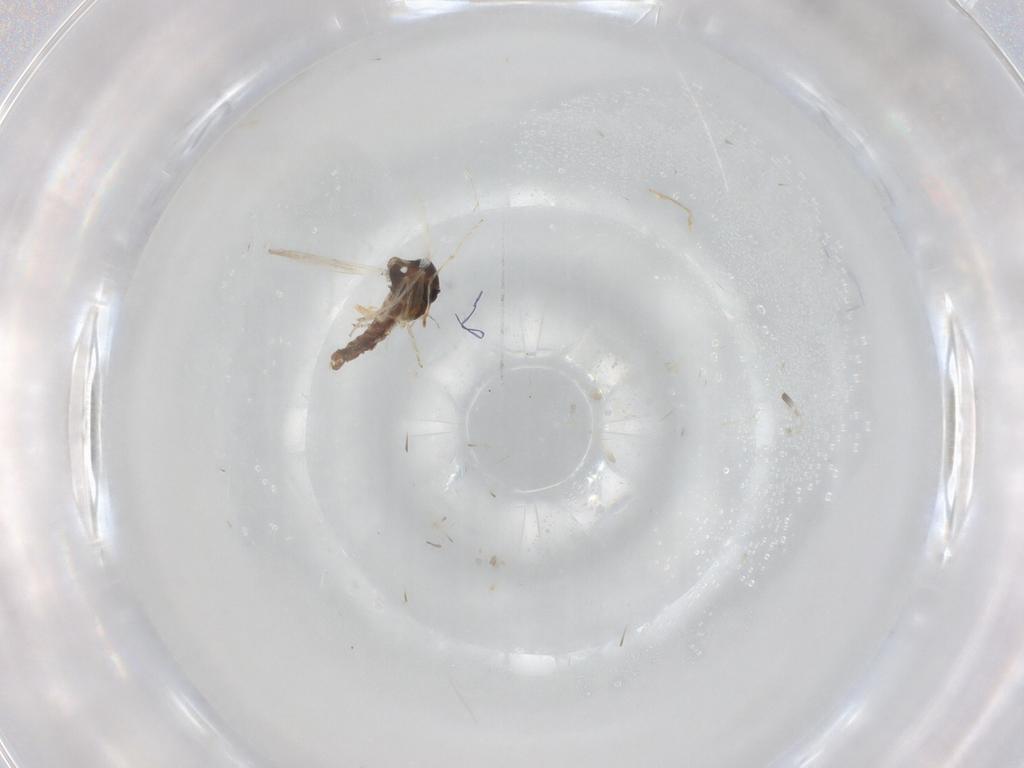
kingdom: Animalia
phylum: Arthropoda
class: Insecta
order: Diptera
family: Ceratopogonidae
